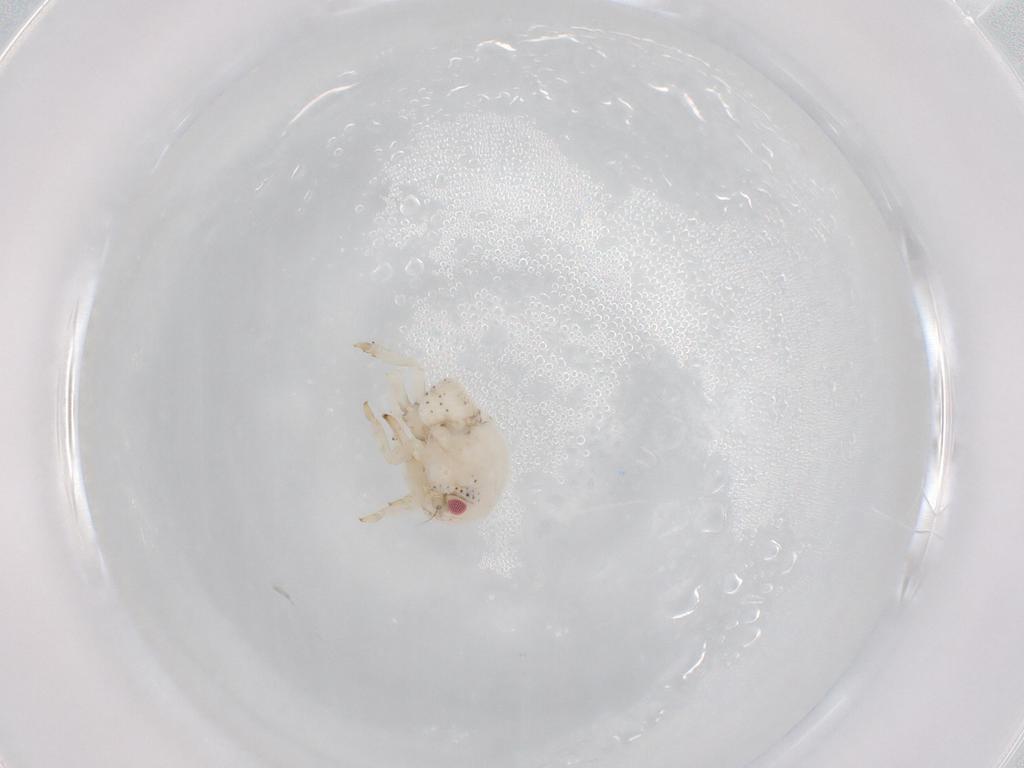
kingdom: Animalia
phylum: Arthropoda
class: Insecta
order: Hemiptera
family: Acanaloniidae
